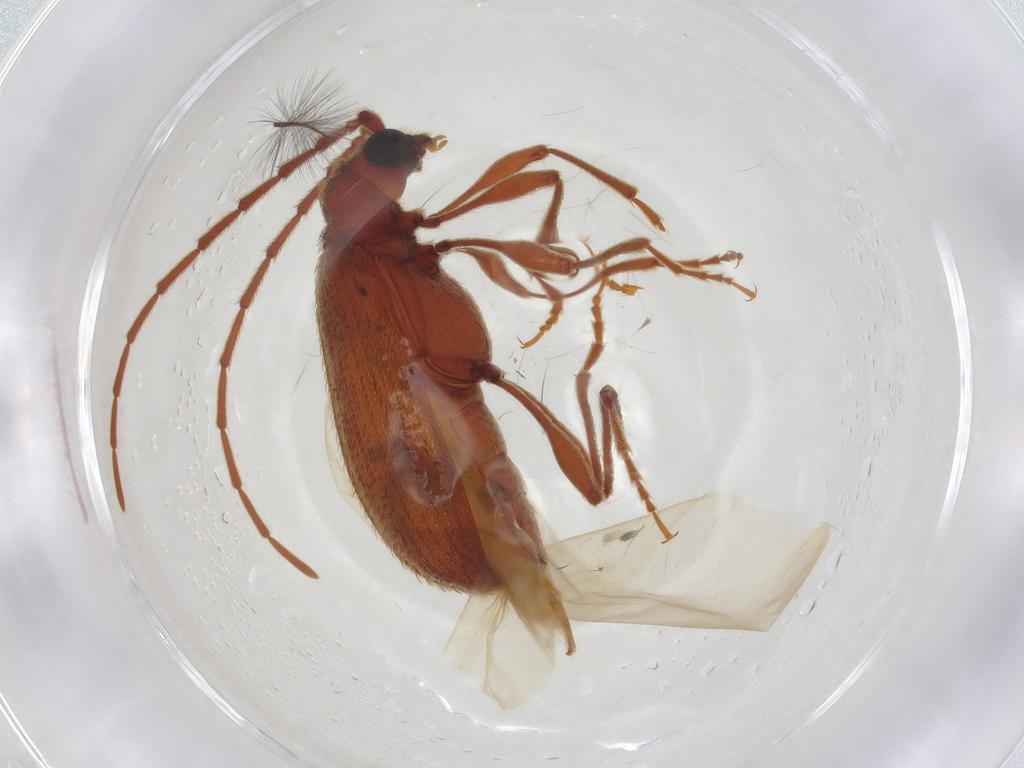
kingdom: Animalia
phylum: Arthropoda
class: Insecta
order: Coleoptera
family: Ptinidae
